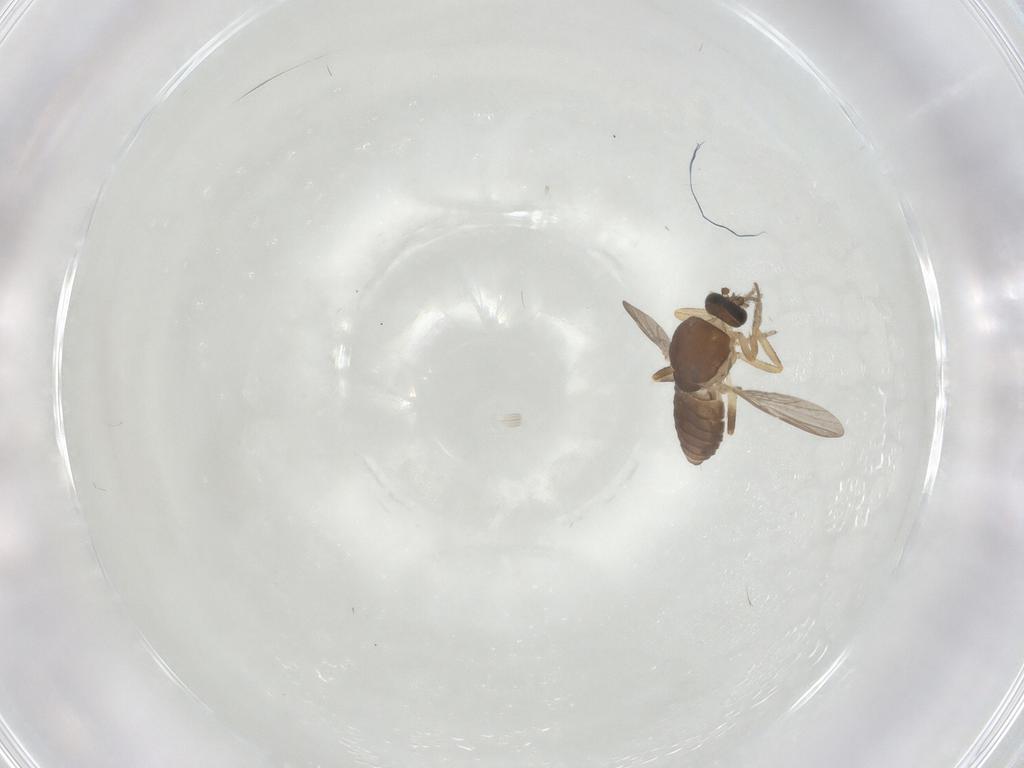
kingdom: Animalia
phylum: Arthropoda
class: Insecta
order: Diptera
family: Ceratopogonidae
